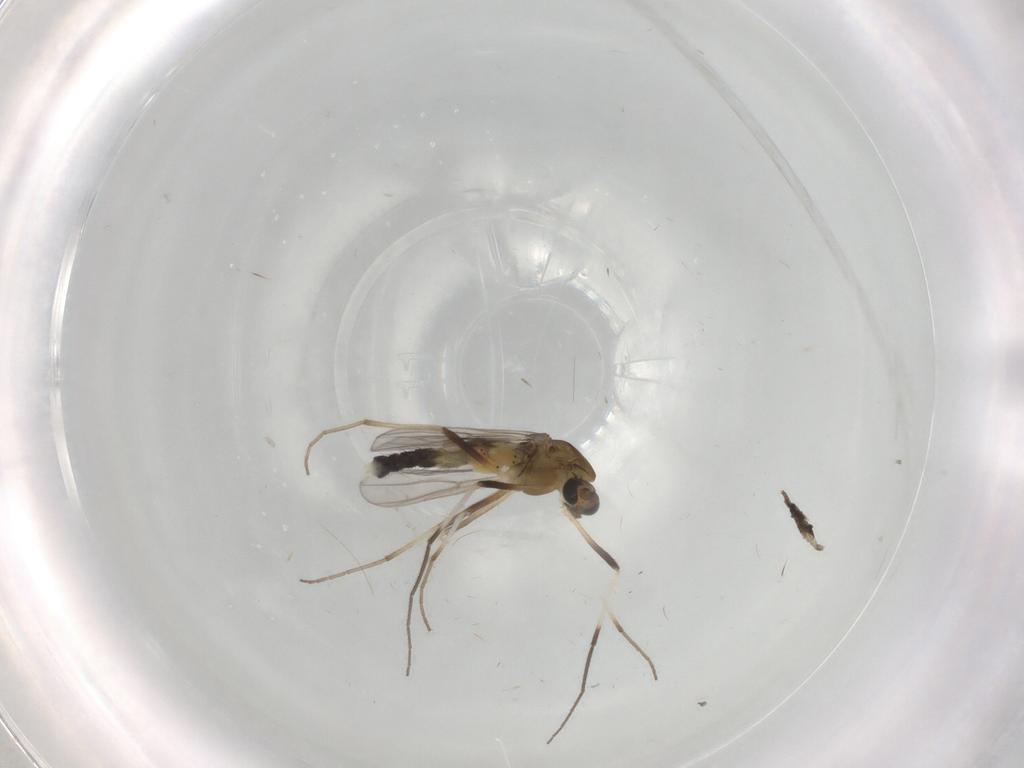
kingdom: Animalia
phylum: Arthropoda
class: Insecta
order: Diptera
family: Chironomidae
